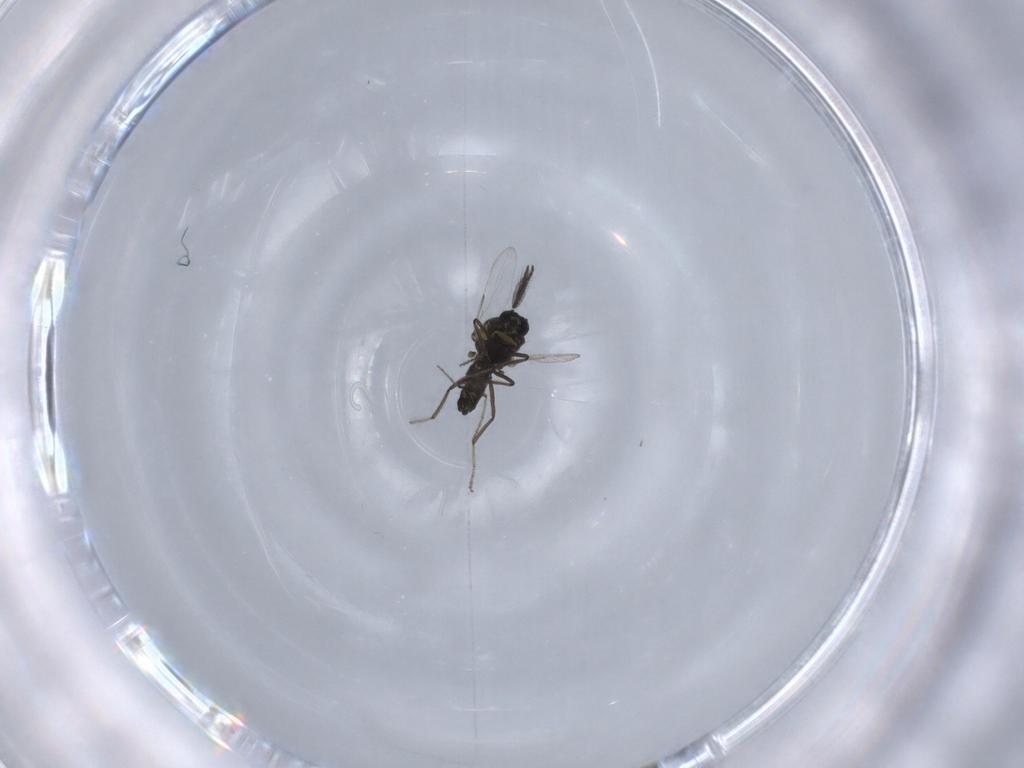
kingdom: Animalia
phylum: Arthropoda
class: Insecta
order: Diptera
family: Ceratopogonidae
